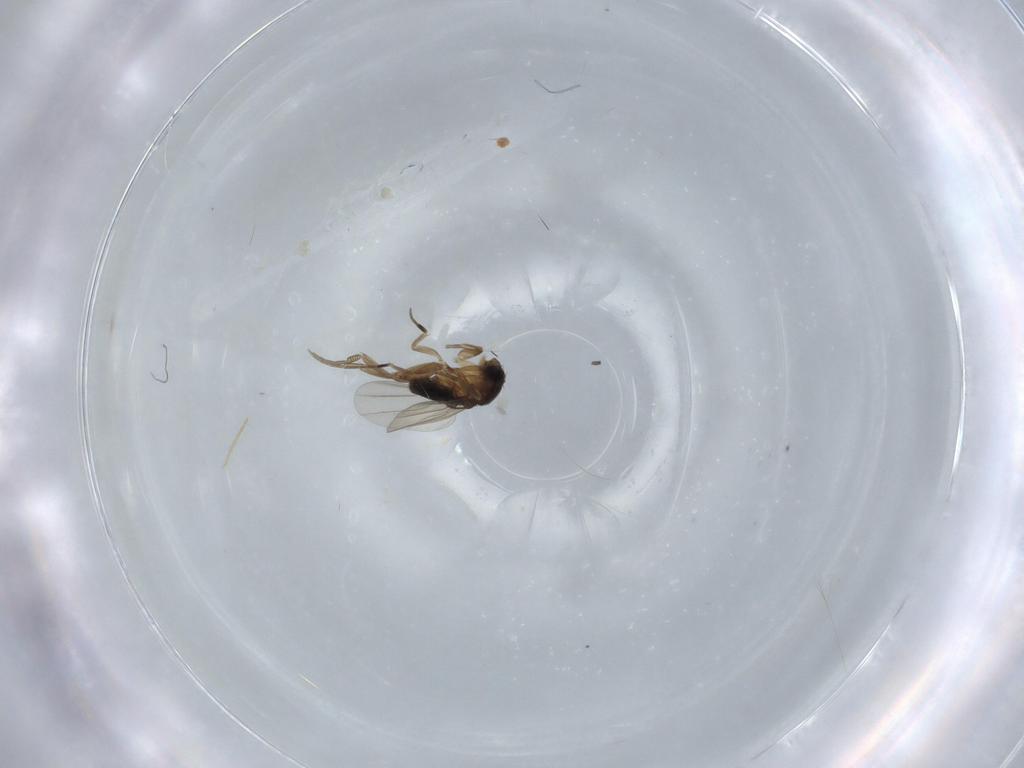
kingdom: Animalia
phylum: Arthropoda
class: Insecta
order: Diptera
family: Phoridae
